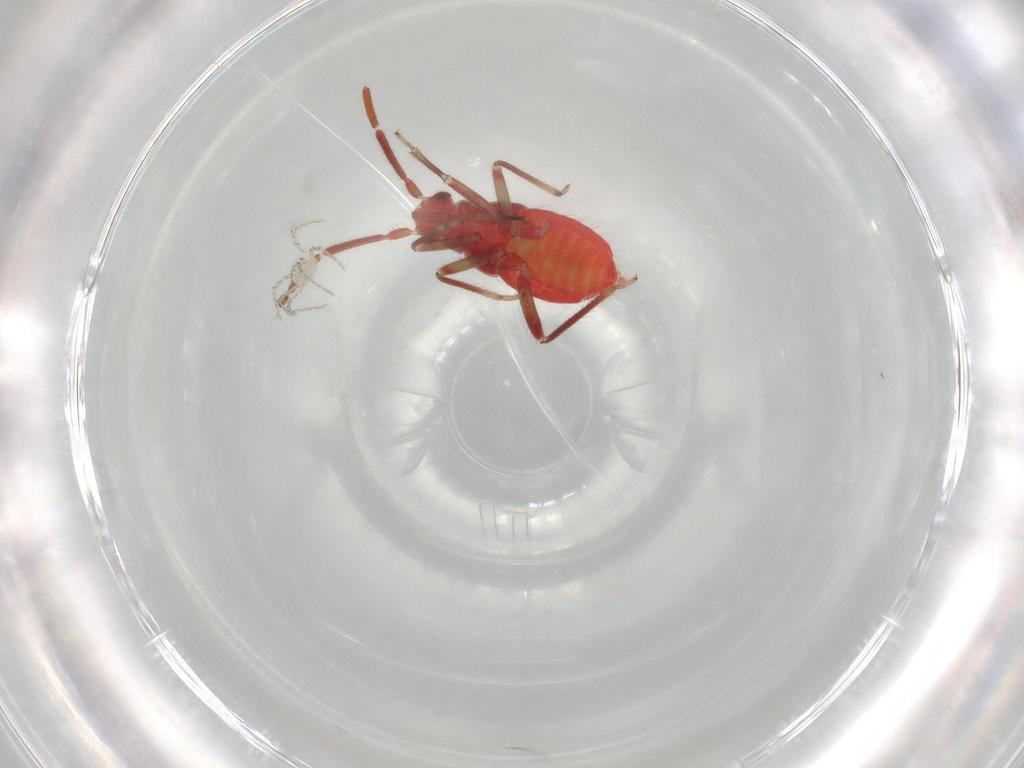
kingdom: Animalia
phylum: Arthropoda
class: Insecta
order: Hemiptera
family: Miridae
